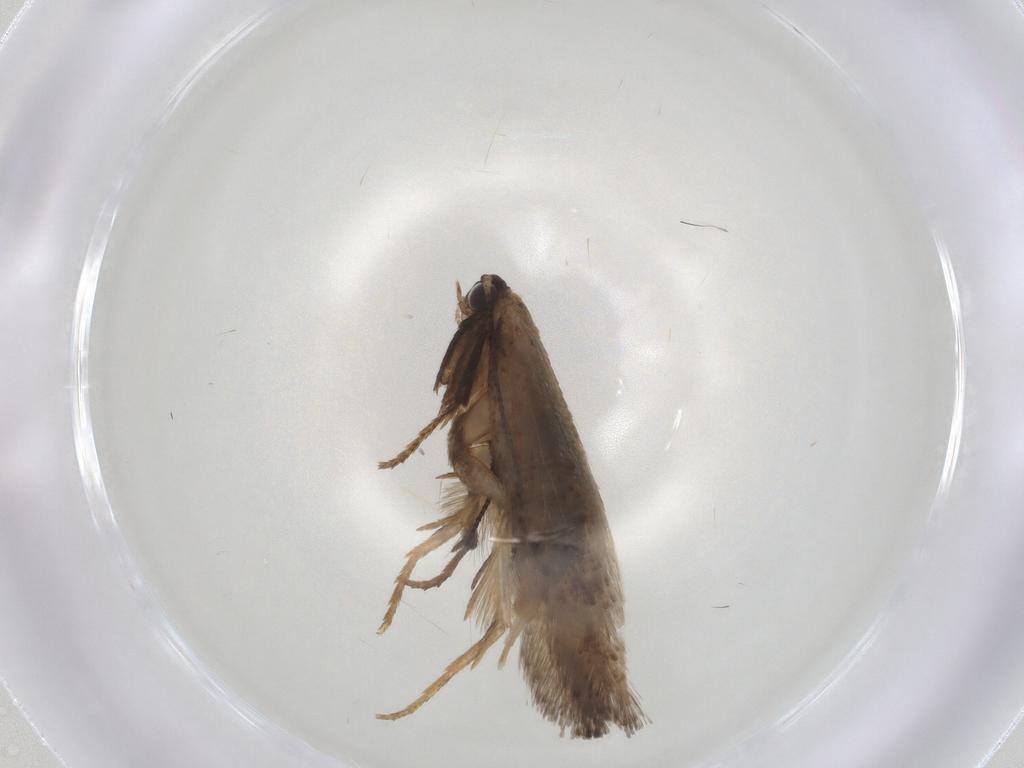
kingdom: Animalia
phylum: Arthropoda
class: Insecta
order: Lepidoptera
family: Nepticulidae
